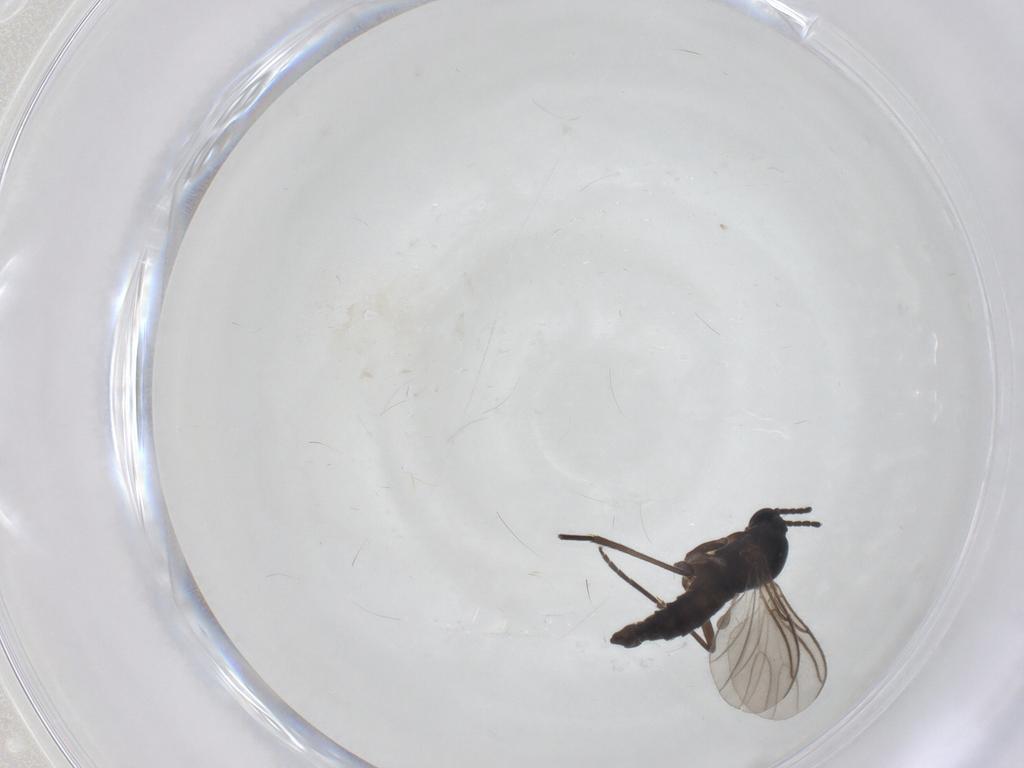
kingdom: Animalia
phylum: Arthropoda
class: Insecta
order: Diptera
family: Sciaridae
